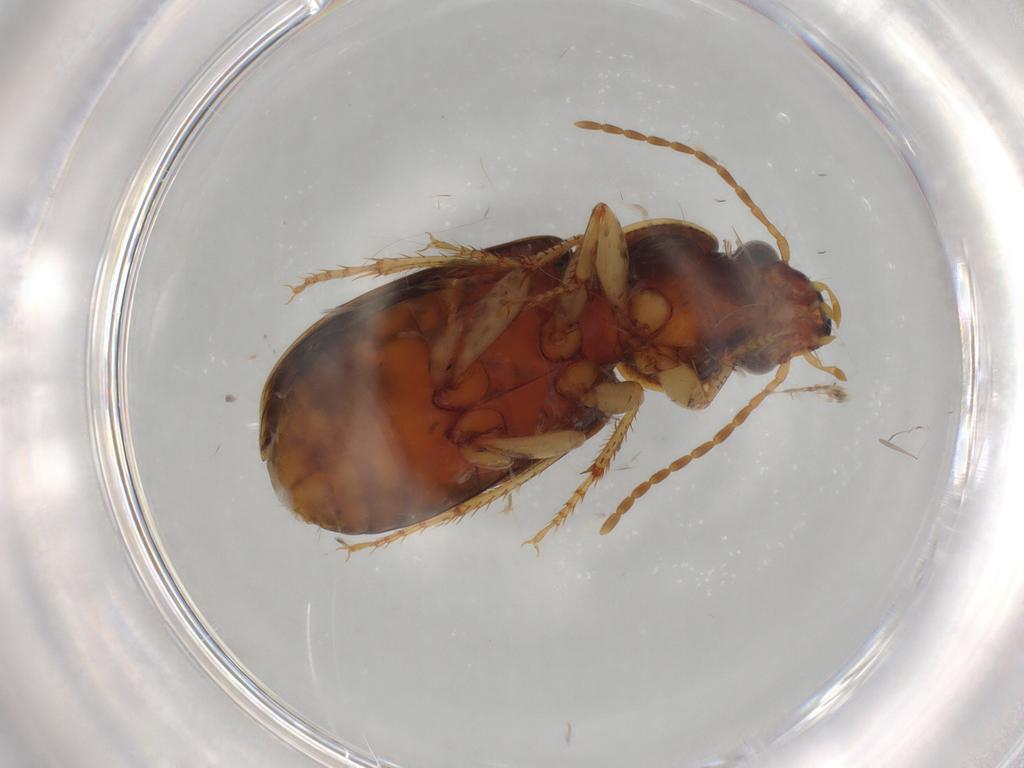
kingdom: Animalia
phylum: Arthropoda
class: Insecta
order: Coleoptera
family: Carabidae
